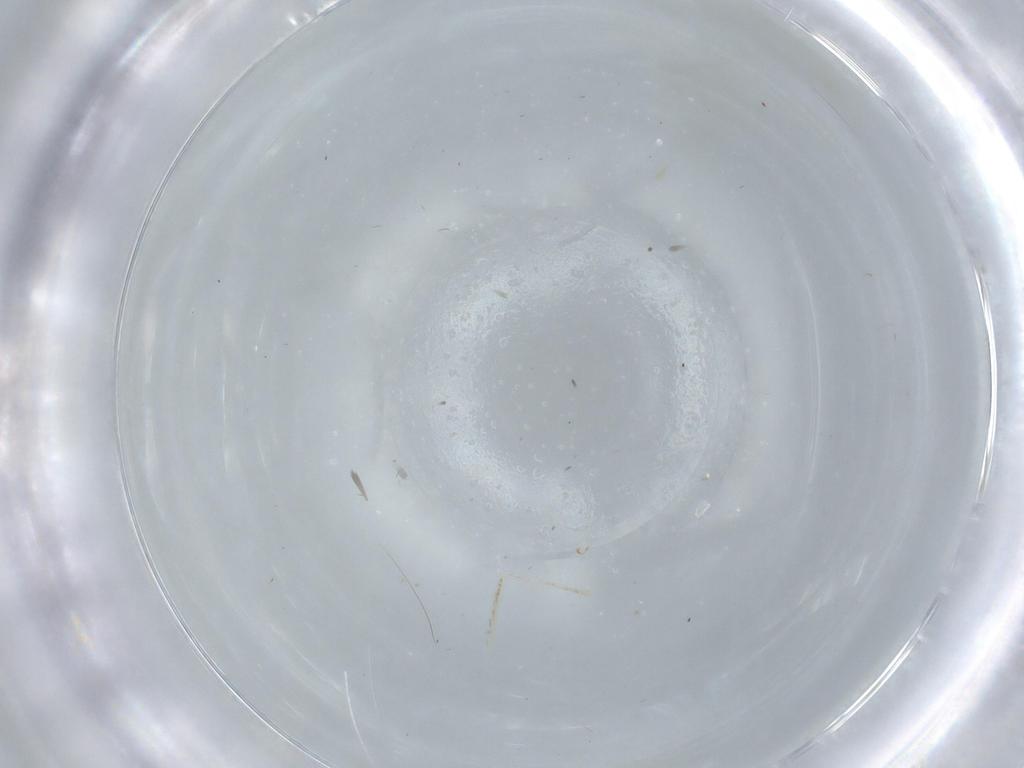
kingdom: Animalia
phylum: Arthropoda
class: Insecta
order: Diptera
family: Cecidomyiidae
